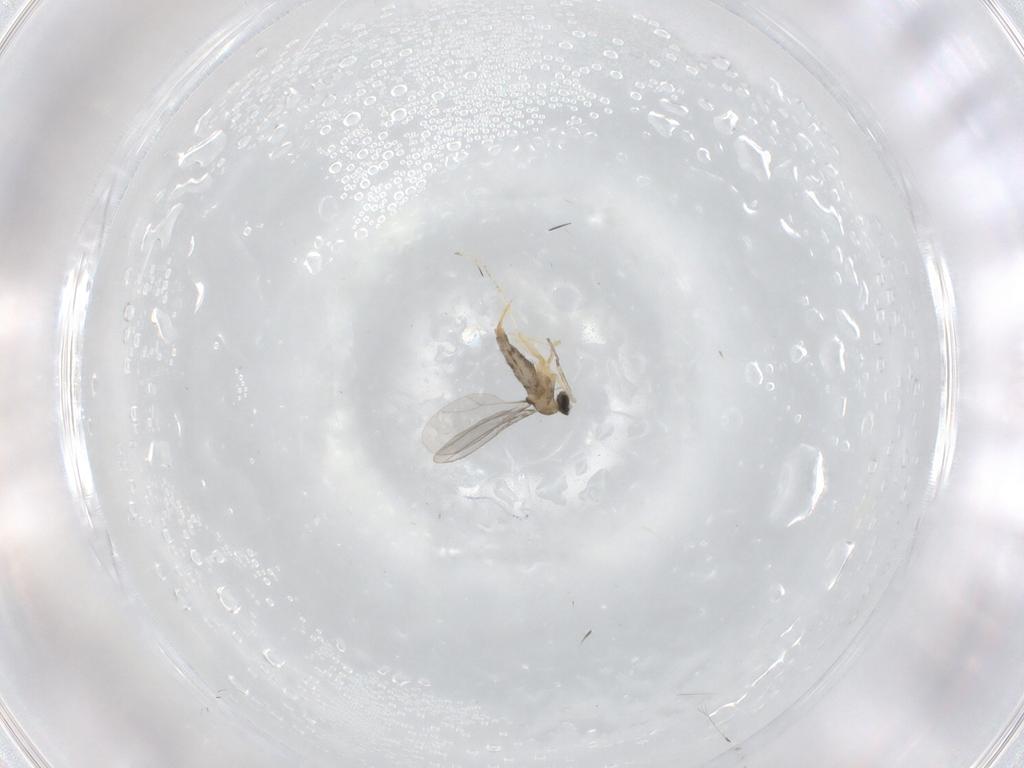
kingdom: Animalia
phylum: Arthropoda
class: Insecta
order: Diptera
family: Cecidomyiidae
